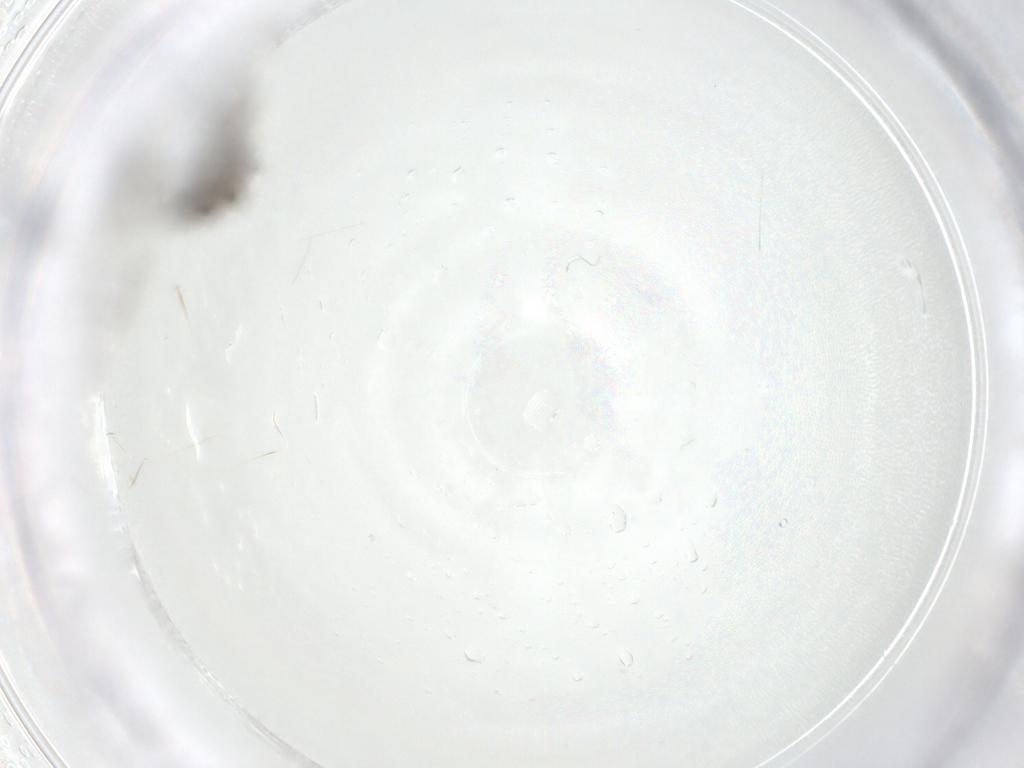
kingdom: Animalia
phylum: Arthropoda
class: Insecta
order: Diptera
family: Cecidomyiidae
